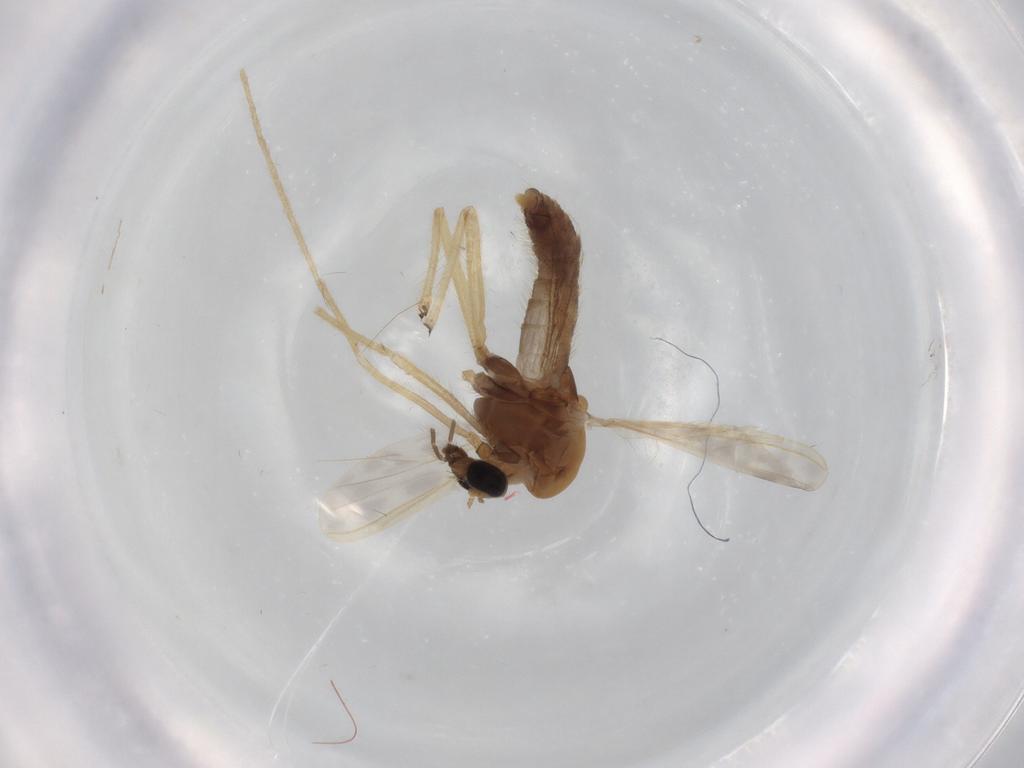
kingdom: Animalia
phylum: Arthropoda
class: Insecta
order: Diptera
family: Chironomidae
